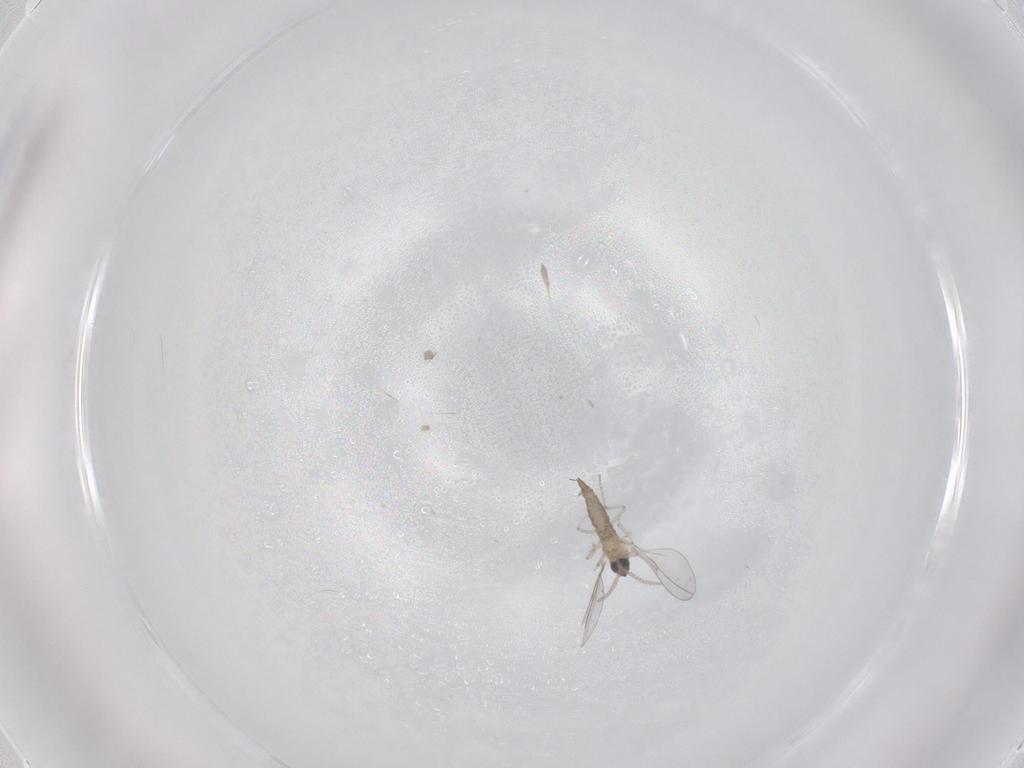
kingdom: Animalia
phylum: Arthropoda
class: Insecta
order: Diptera
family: Cecidomyiidae
